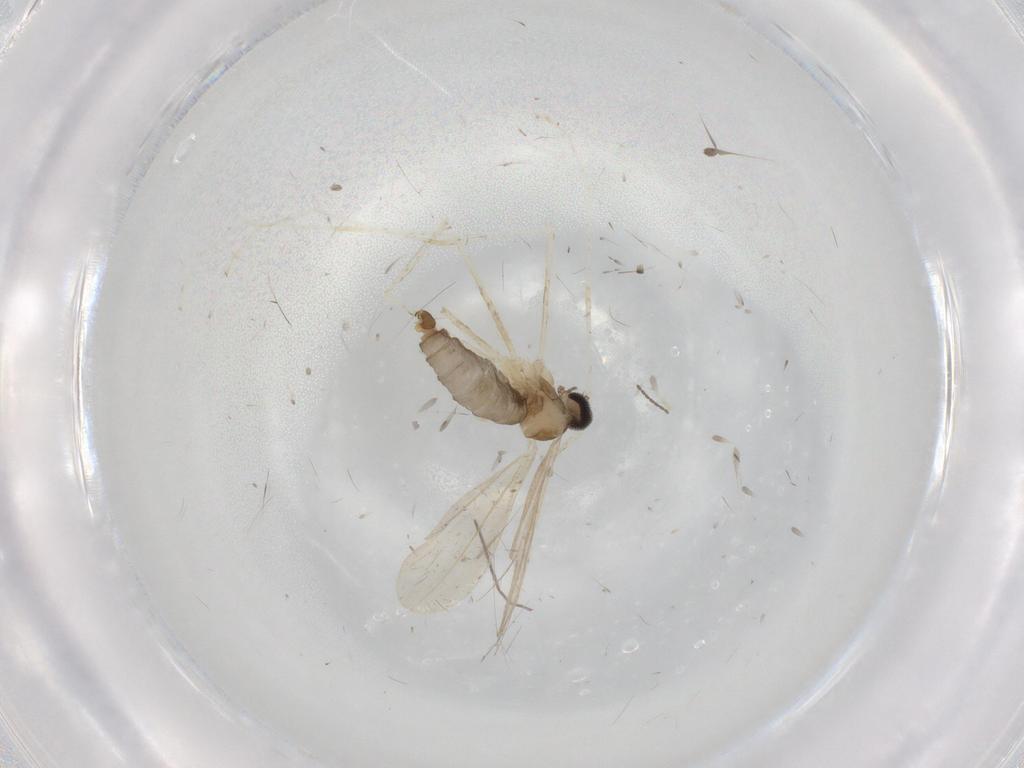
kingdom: Animalia
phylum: Arthropoda
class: Insecta
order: Diptera
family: Cecidomyiidae
